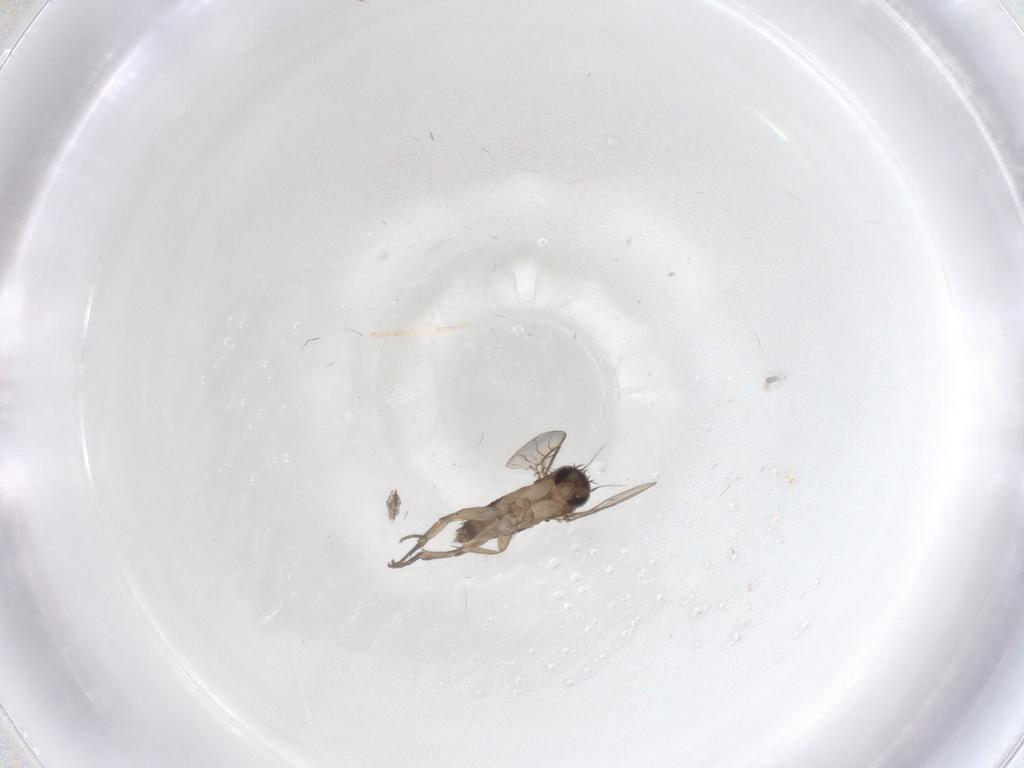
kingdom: Animalia
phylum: Arthropoda
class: Insecta
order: Diptera
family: Phoridae
